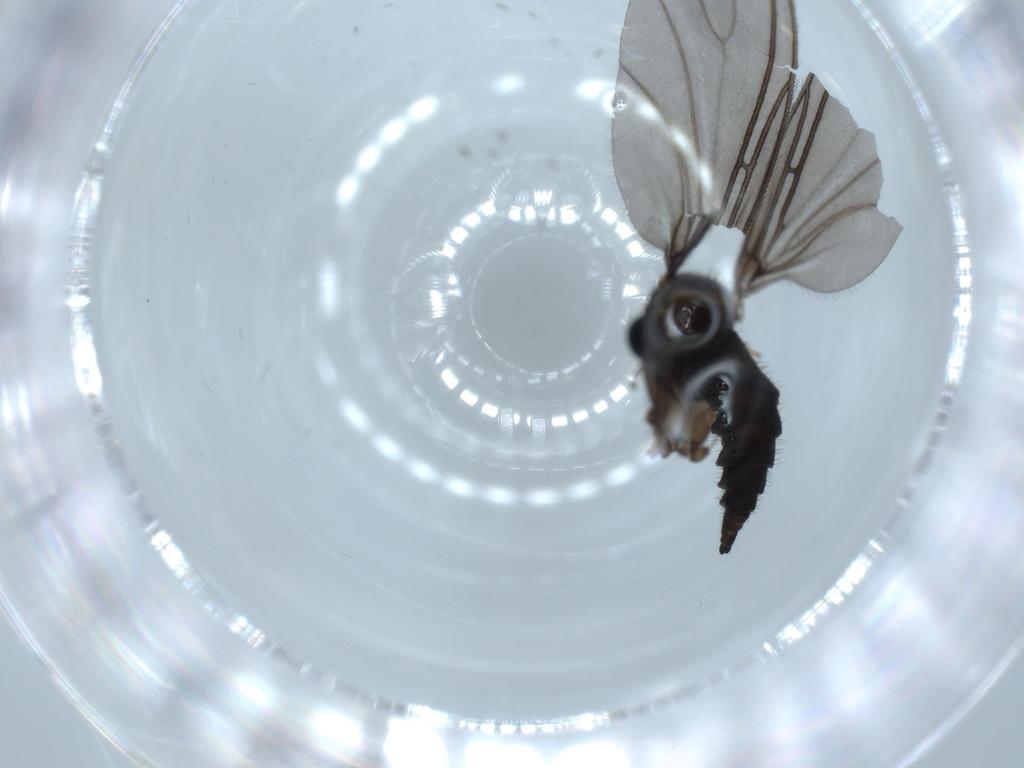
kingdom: Animalia
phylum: Arthropoda
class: Insecta
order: Diptera
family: Sciaridae
